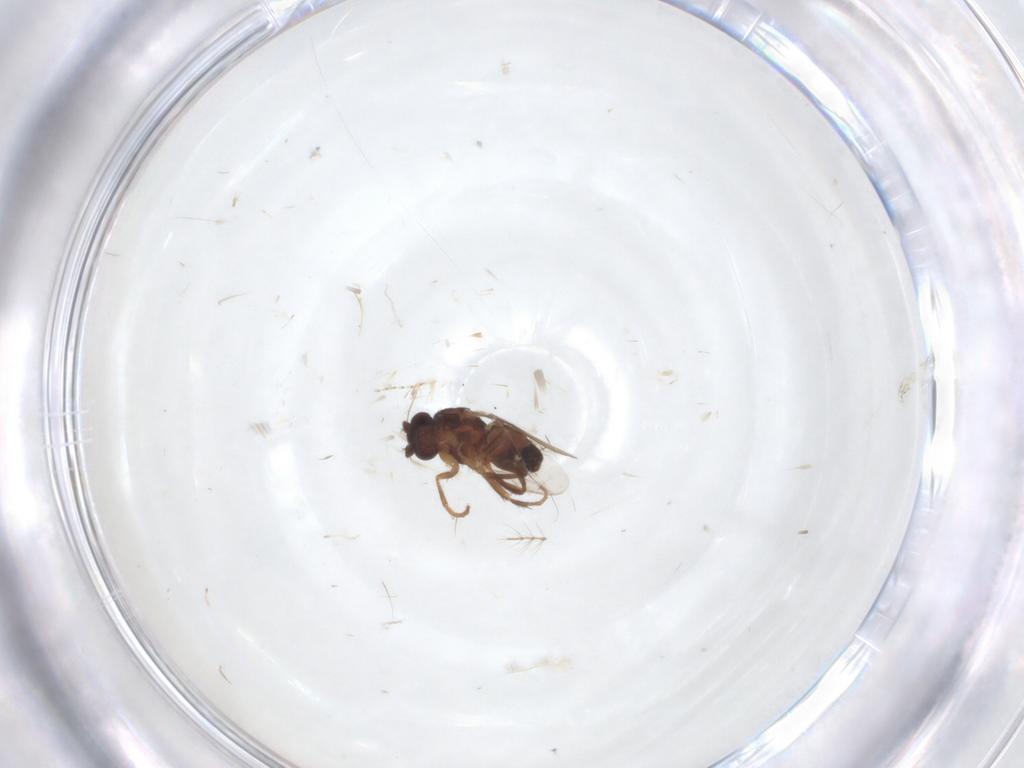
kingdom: Animalia
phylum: Arthropoda
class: Insecta
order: Diptera
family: Sphaeroceridae
